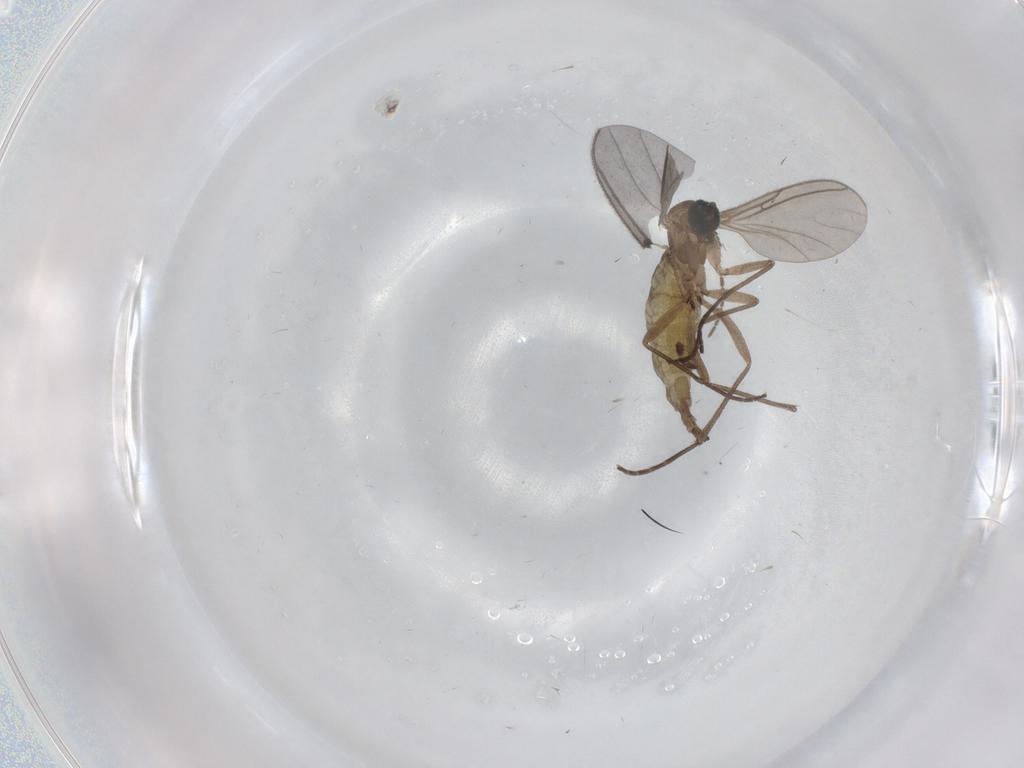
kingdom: Animalia
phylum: Arthropoda
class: Insecta
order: Diptera
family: Sciaridae
